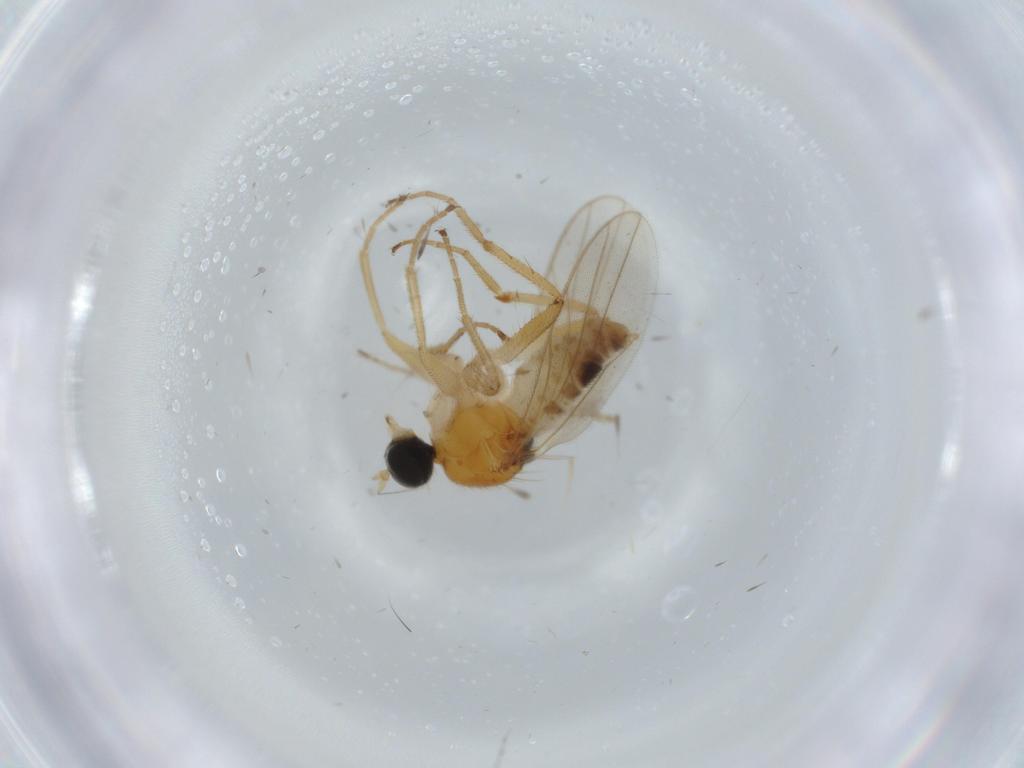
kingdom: Animalia
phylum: Arthropoda
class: Insecta
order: Diptera
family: Hybotidae
